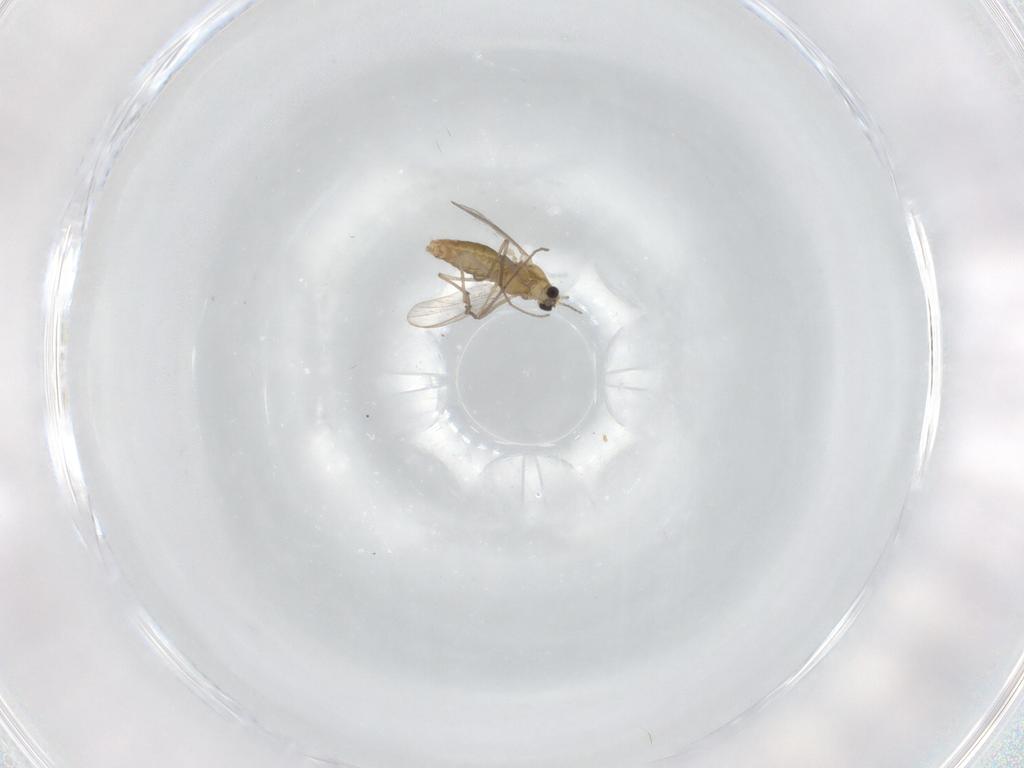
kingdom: Animalia
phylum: Arthropoda
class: Insecta
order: Diptera
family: Chironomidae
